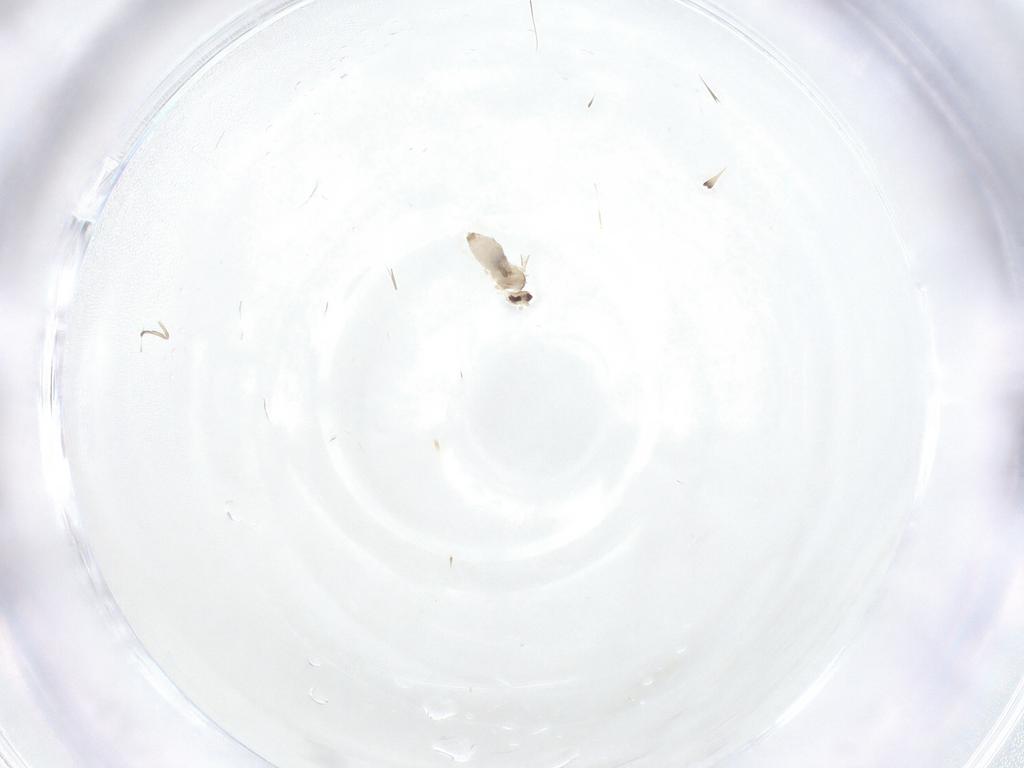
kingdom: Animalia
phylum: Arthropoda
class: Insecta
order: Diptera
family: Cecidomyiidae
